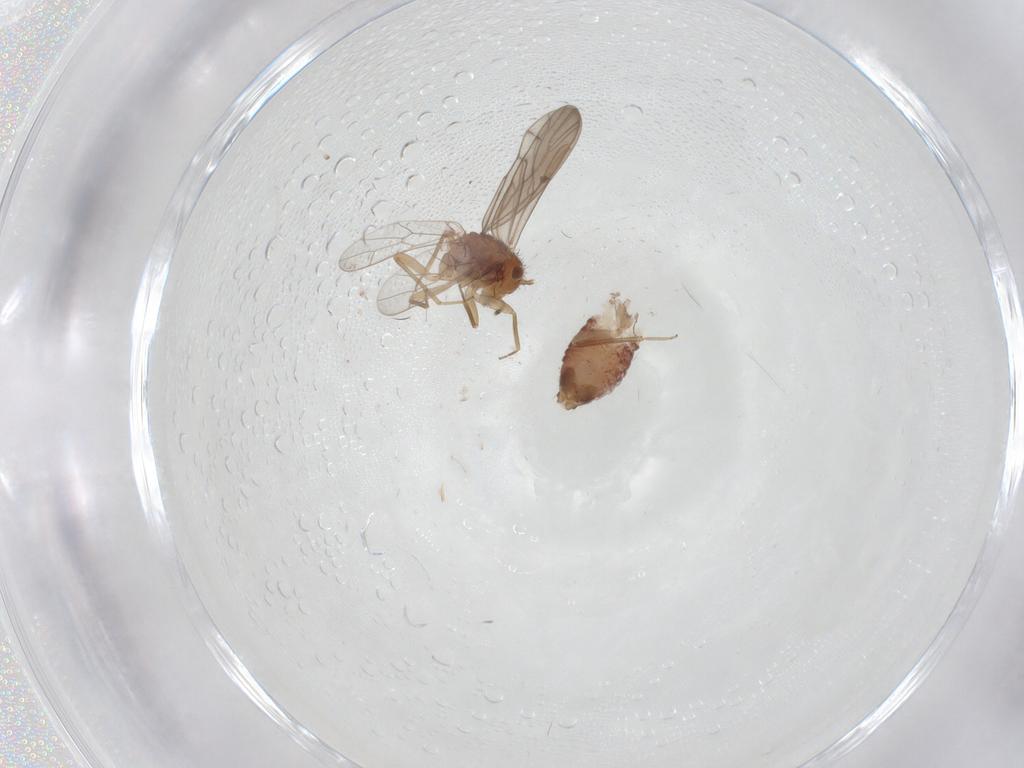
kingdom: Animalia
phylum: Arthropoda
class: Insecta
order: Psocodea
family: Ectopsocidae
